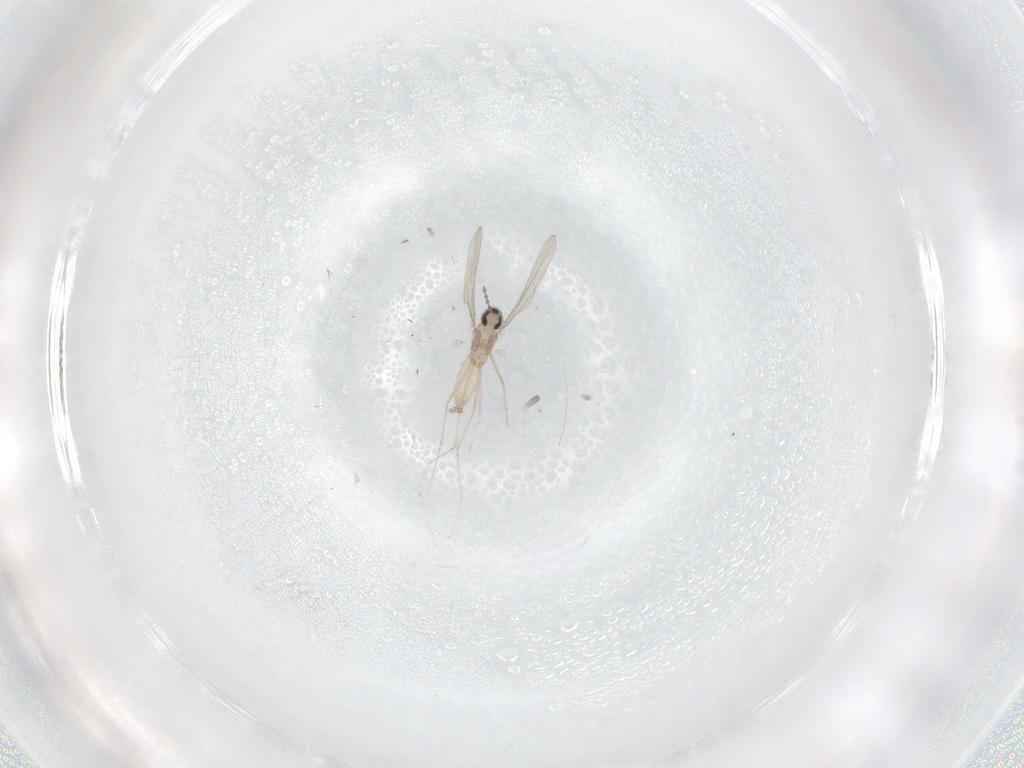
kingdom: Animalia
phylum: Arthropoda
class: Insecta
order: Diptera
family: Cecidomyiidae
